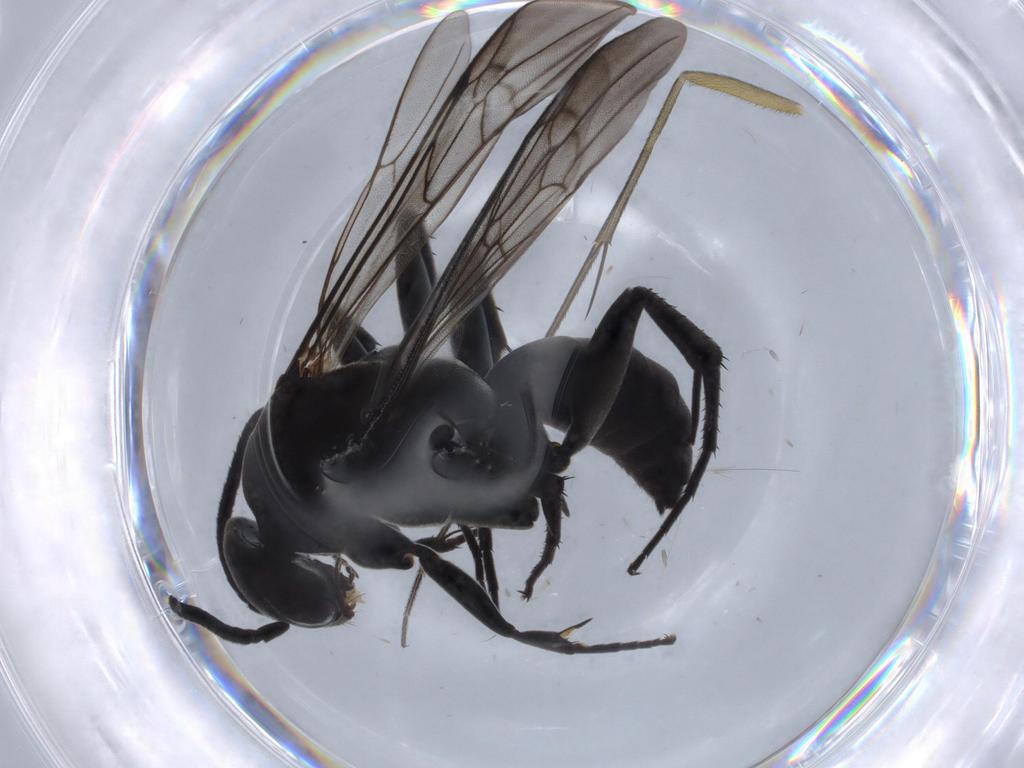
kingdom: Animalia
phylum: Arthropoda
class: Insecta
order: Hymenoptera
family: Pompilidae
